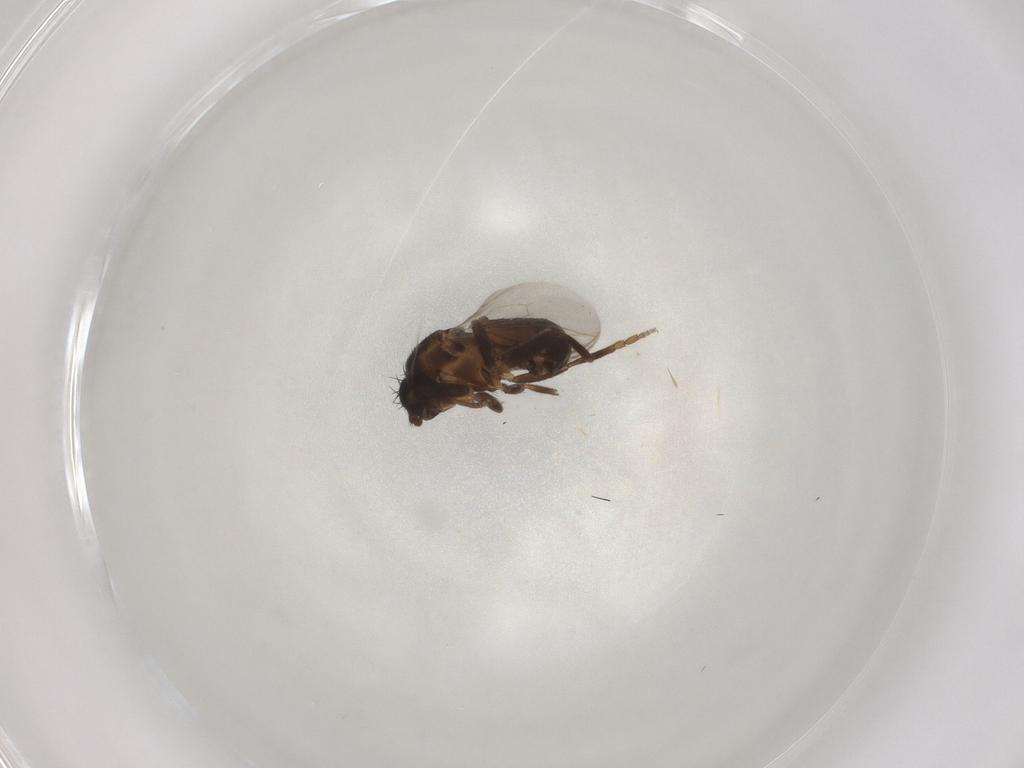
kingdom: Animalia
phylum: Arthropoda
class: Insecta
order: Diptera
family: Sphaeroceridae
